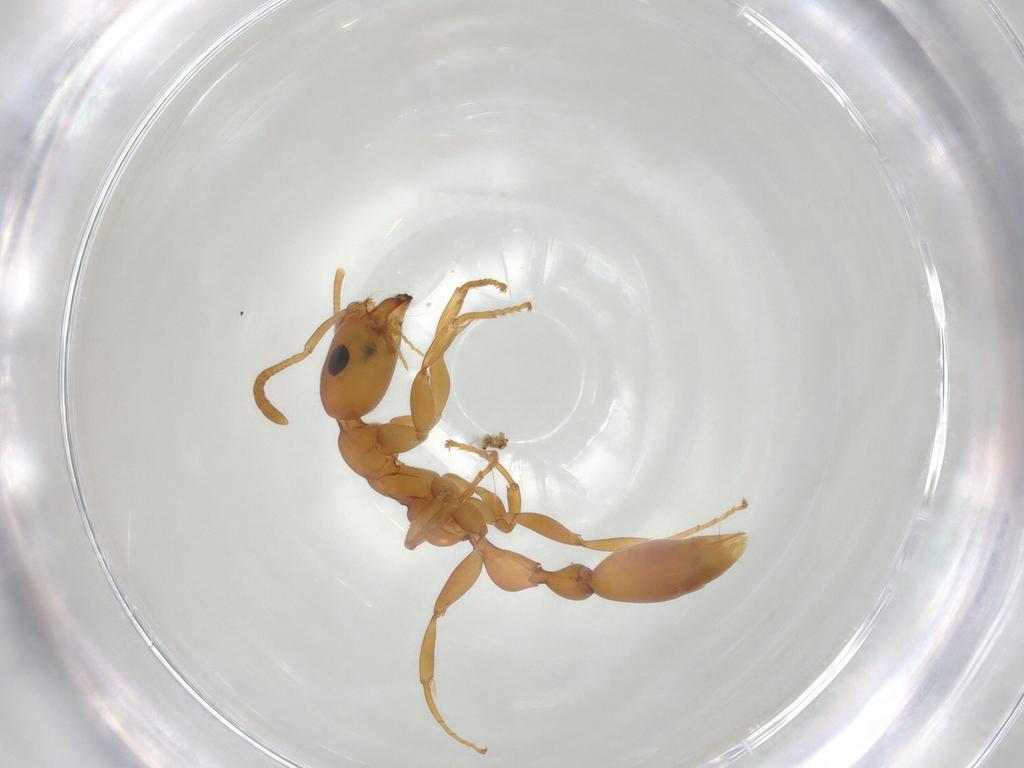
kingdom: Animalia
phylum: Arthropoda
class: Insecta
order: Hymenoptera
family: Formicidae
